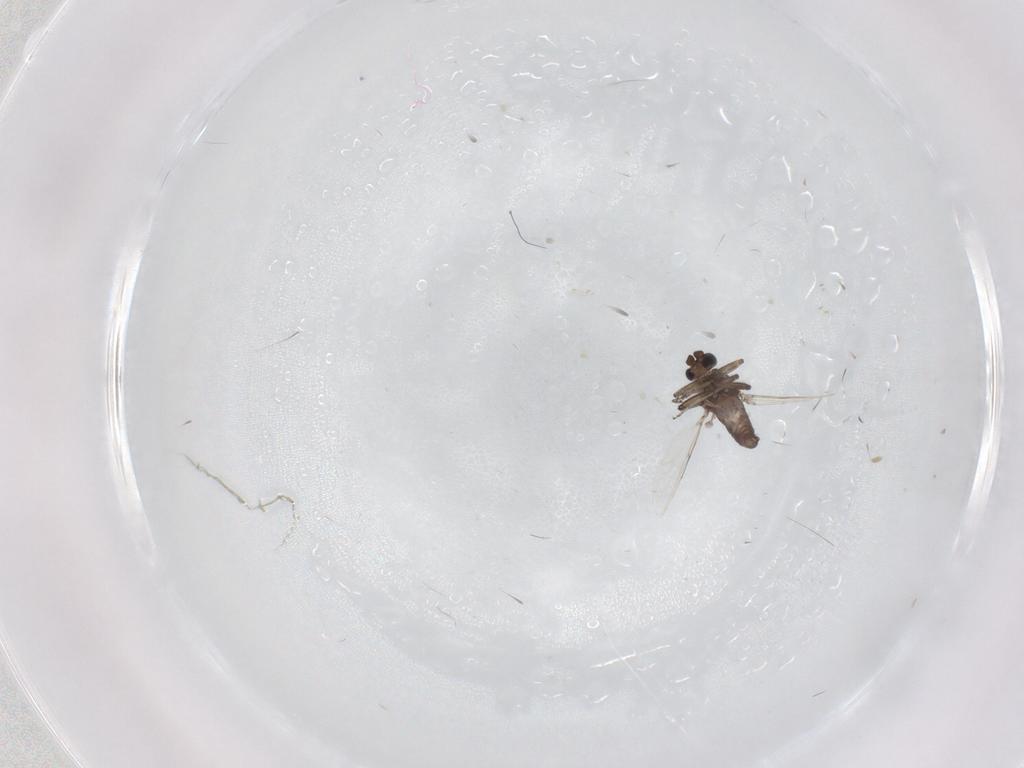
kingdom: Animalia
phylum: Arthropoda
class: Insecta
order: Diptera
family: Ceratopogonidae
